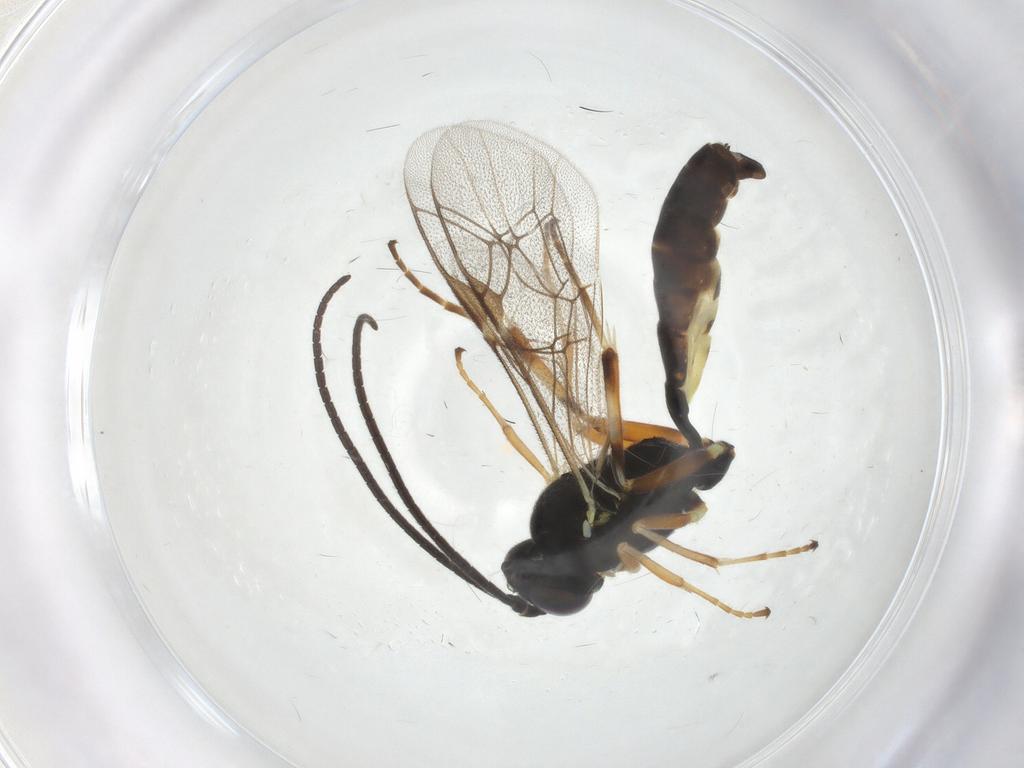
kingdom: Animalia
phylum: Arthropoda
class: Insecta
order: Hymenoptera
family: Ichneumonidae
